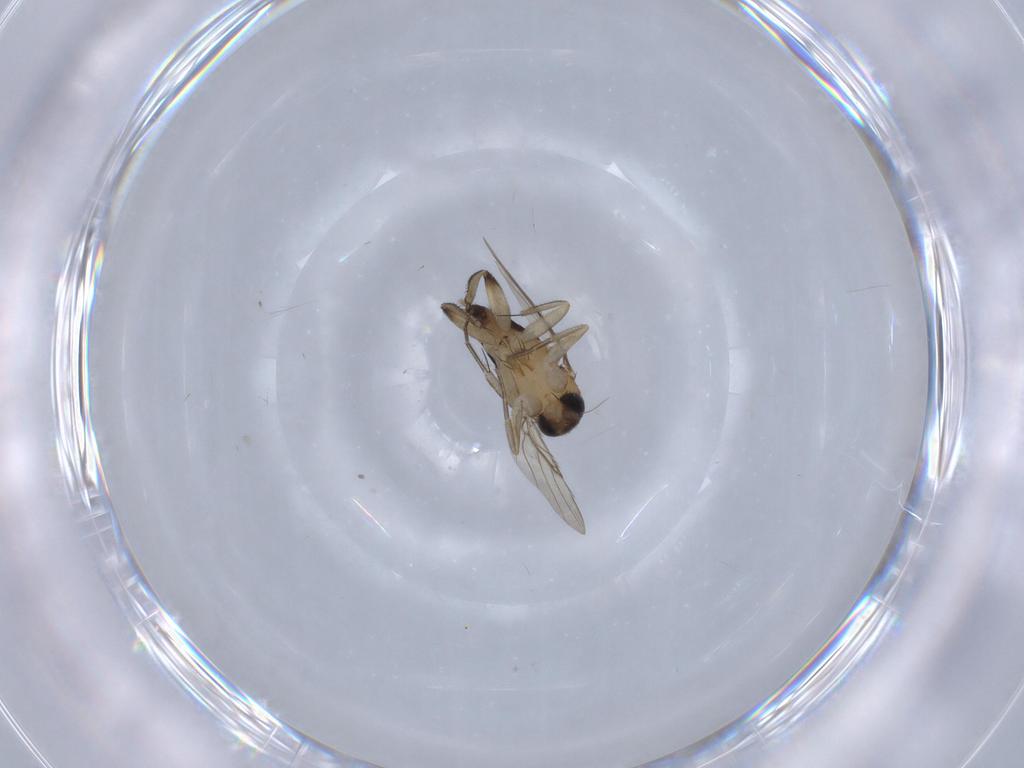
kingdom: Animalia
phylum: Arthropoda
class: Insecta
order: Diptera
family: Phoridae
